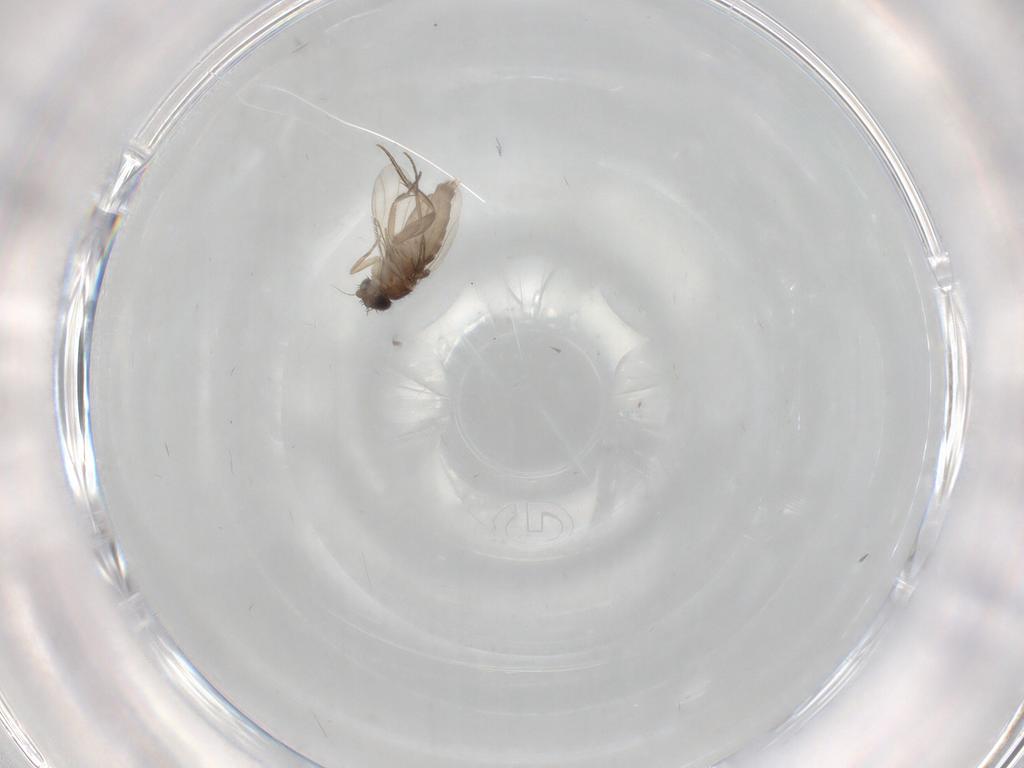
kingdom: Animalia
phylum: Arthropoda
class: Insecta
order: Diptera
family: Phoridae
